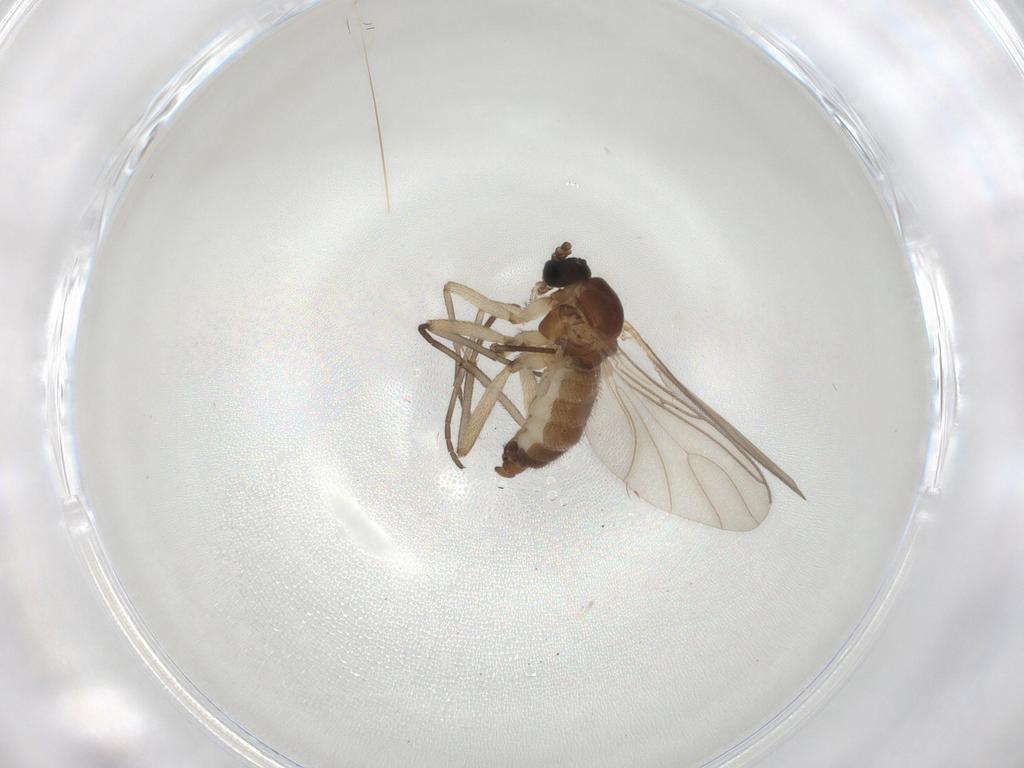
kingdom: Animalia
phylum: Arthropoda
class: Insecta
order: Diptera
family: Sciaridae
